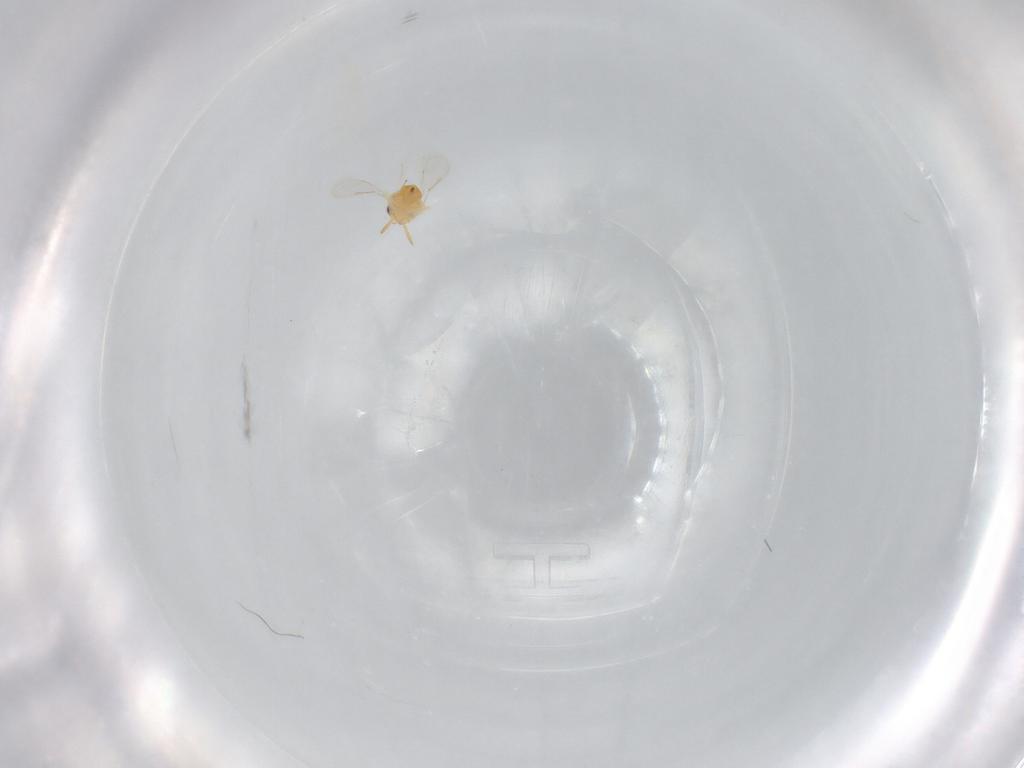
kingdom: Animalia
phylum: Arthropoda
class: Insecta
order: Hymenoptera
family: Aphelinidae
